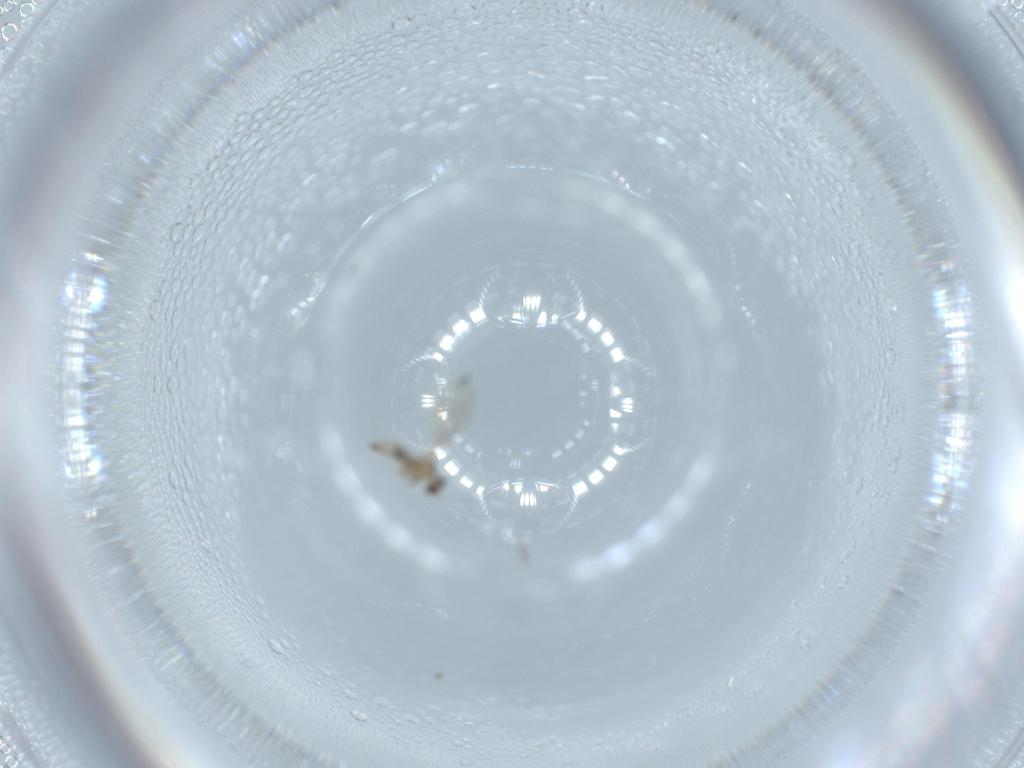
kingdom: Animalia
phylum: Arthropoda
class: Insecta
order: Diptera
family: Cecidomyiidae
